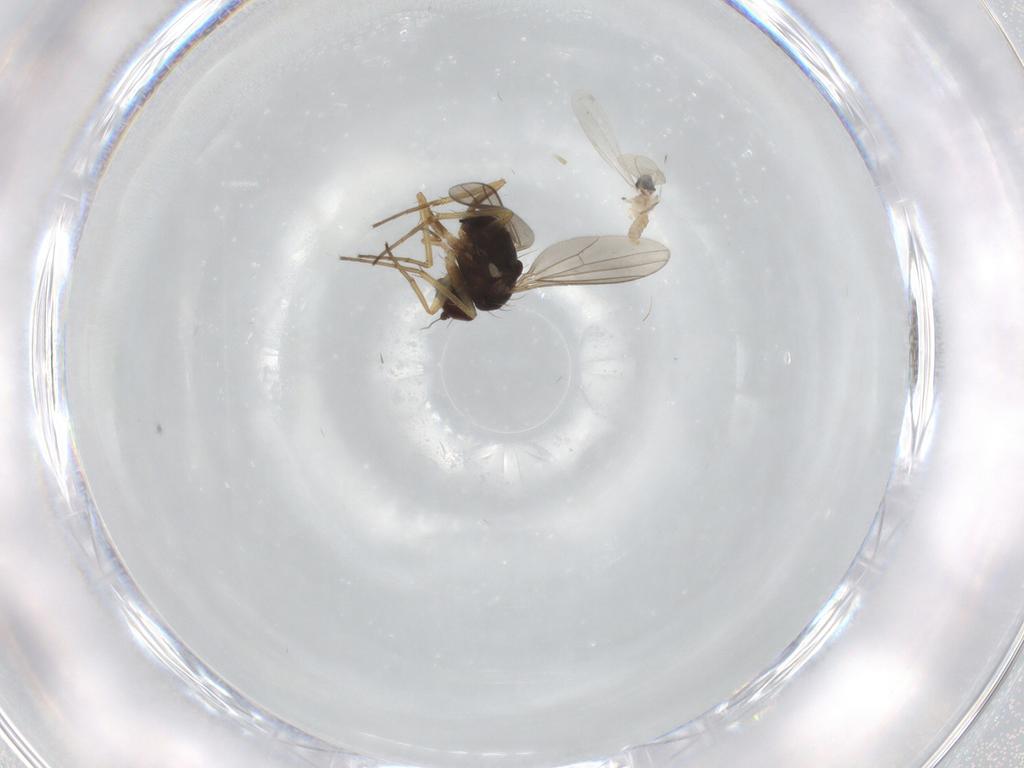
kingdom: Animalia
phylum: Arthropoda
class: Insecta
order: Diptera
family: Dolichopodidae
